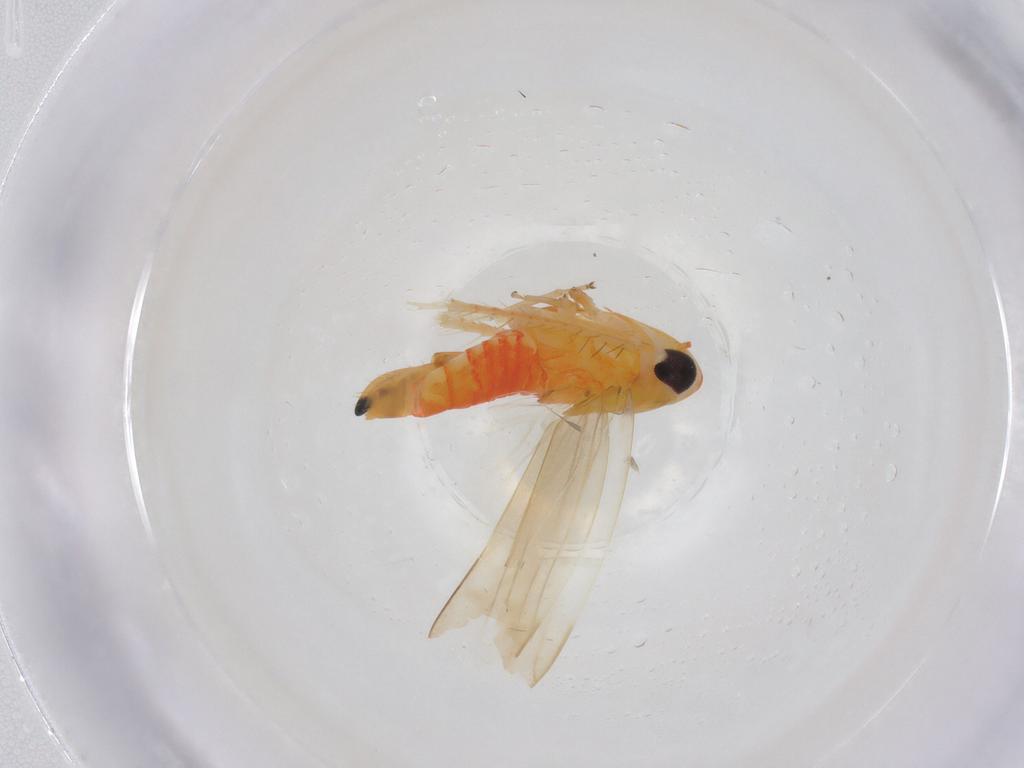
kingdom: Animalia
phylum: Arthropoda
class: Insecta
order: Hemiptera
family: Cicadellidae
